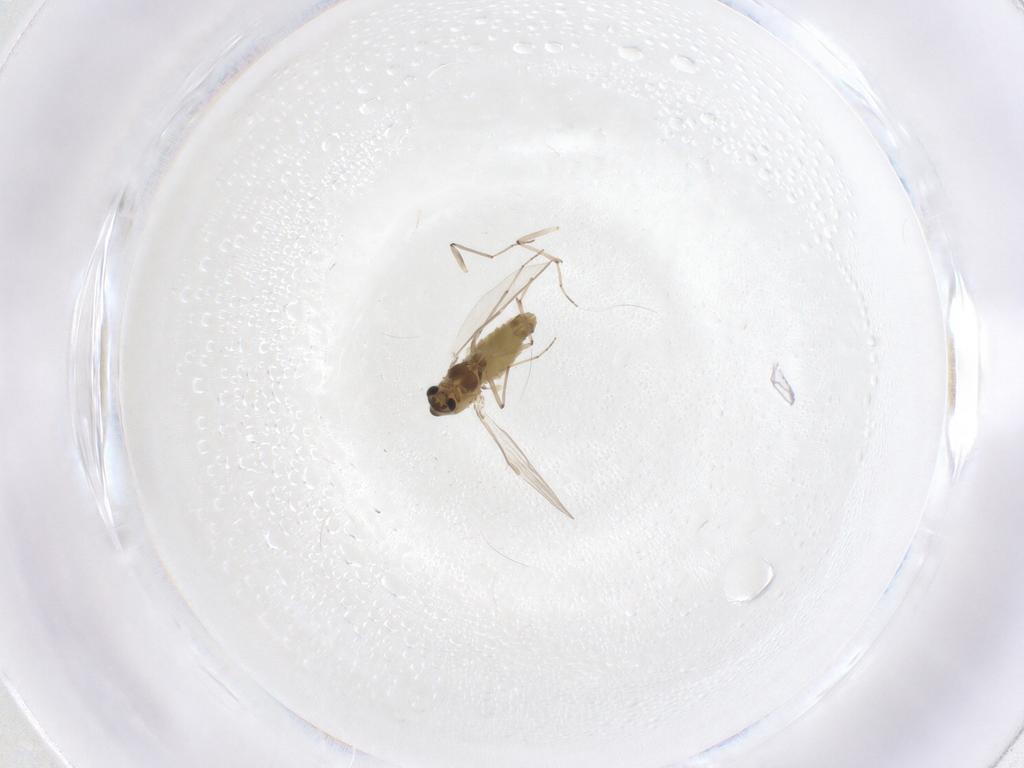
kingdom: Animalia
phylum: Arthropoda
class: Insecta
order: Diptera
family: Chironomidae
